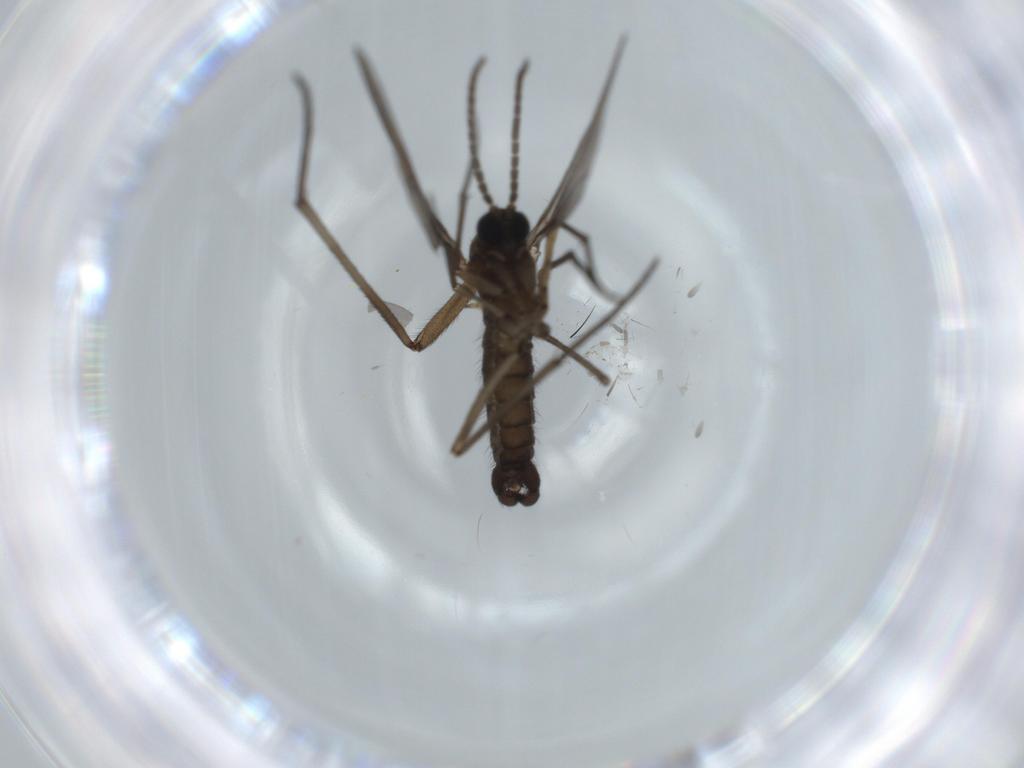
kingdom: Animalia
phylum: Arthropoda
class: Insecta
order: Diptera
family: Sciaridae
